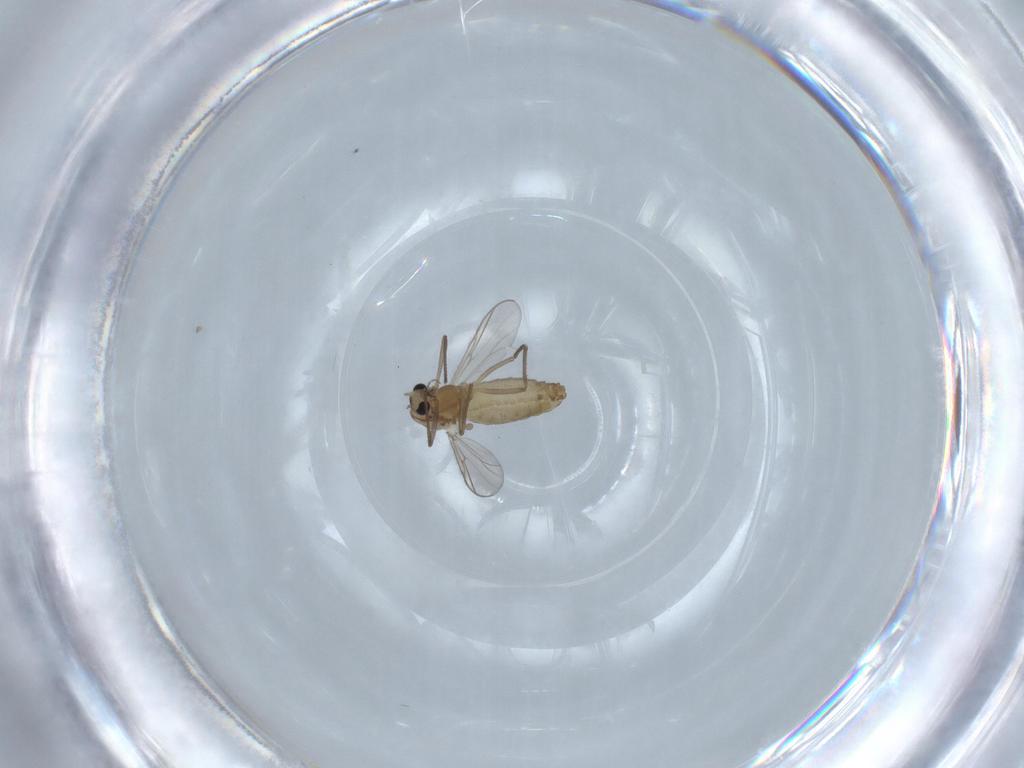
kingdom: Animalia
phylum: Arthropoda
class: Insecta
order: Diptera
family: Chironomidae
